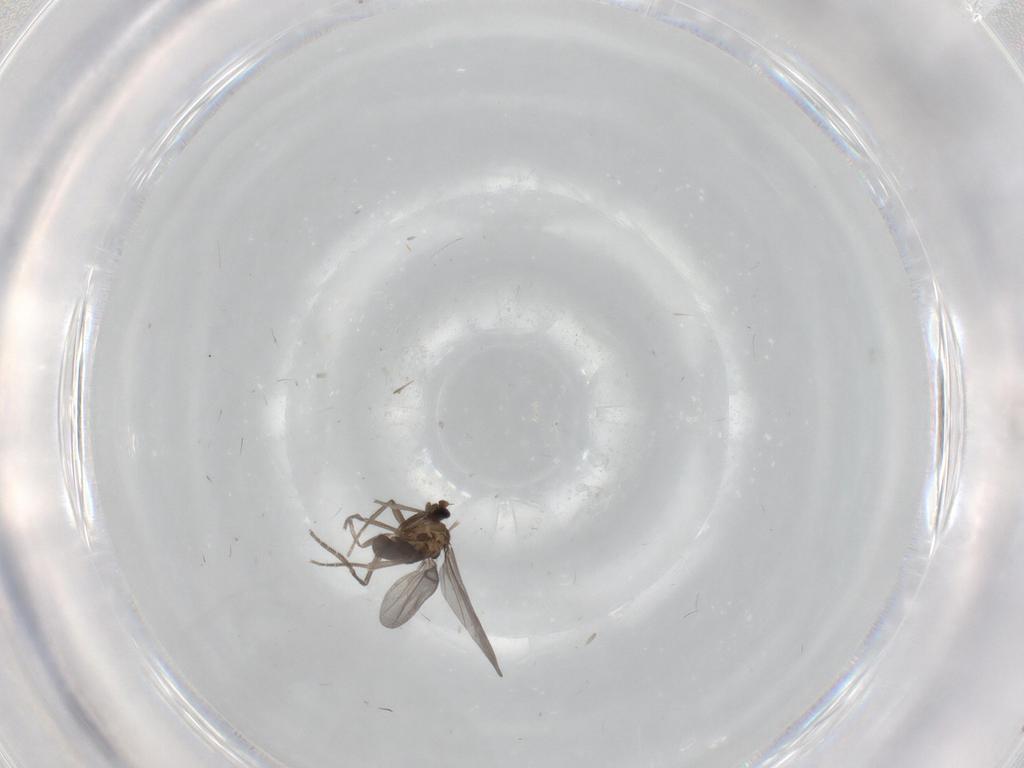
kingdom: Animalia
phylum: Arthropoda
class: Insecta
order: Diptera
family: Phoridae
